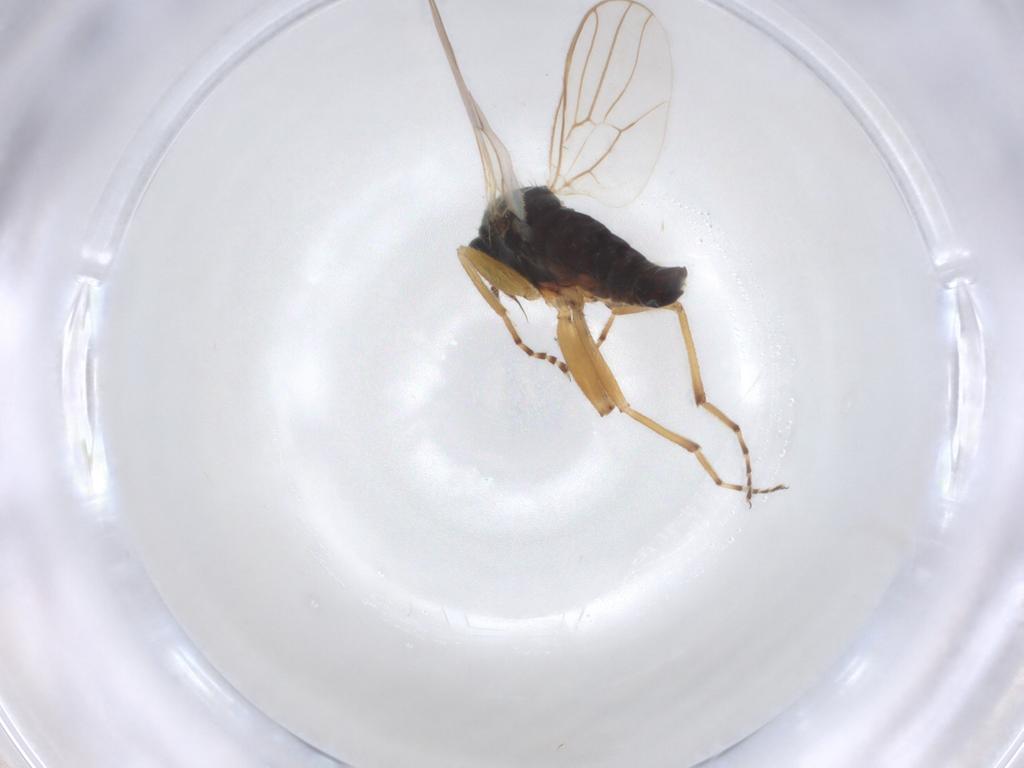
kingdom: Animalia
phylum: Arthropoda
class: Insecta
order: Diptera
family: Hybotidae
